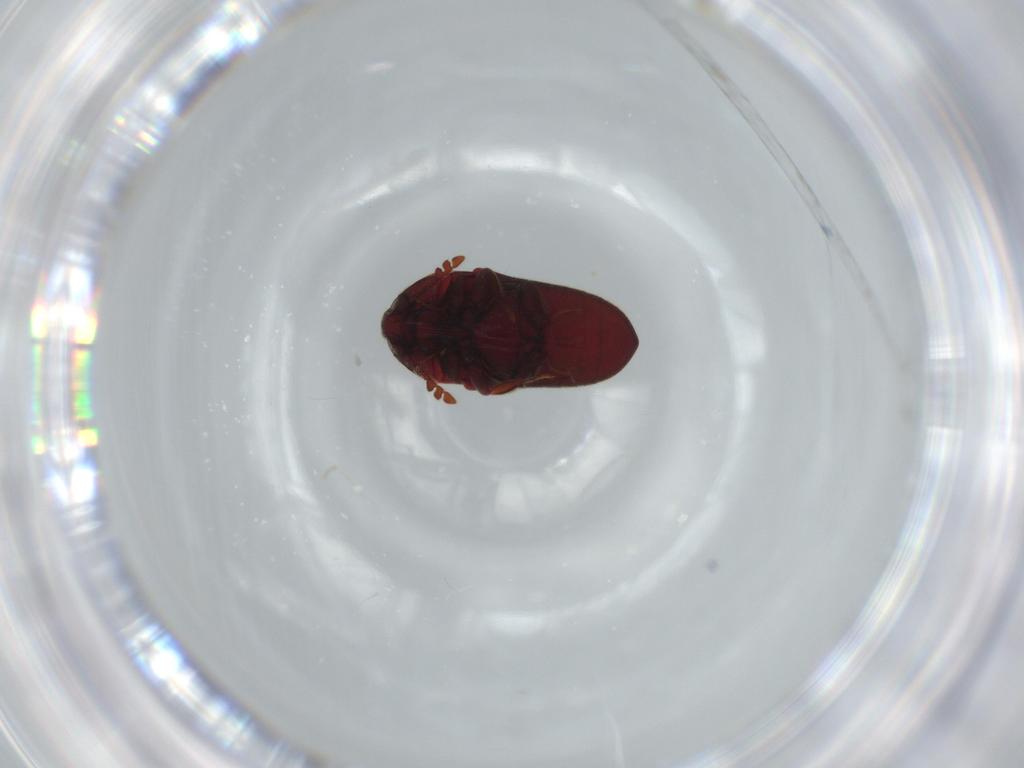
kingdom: Animalia
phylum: Arthropoda
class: Insecta
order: Coleoptera
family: Throscidae
